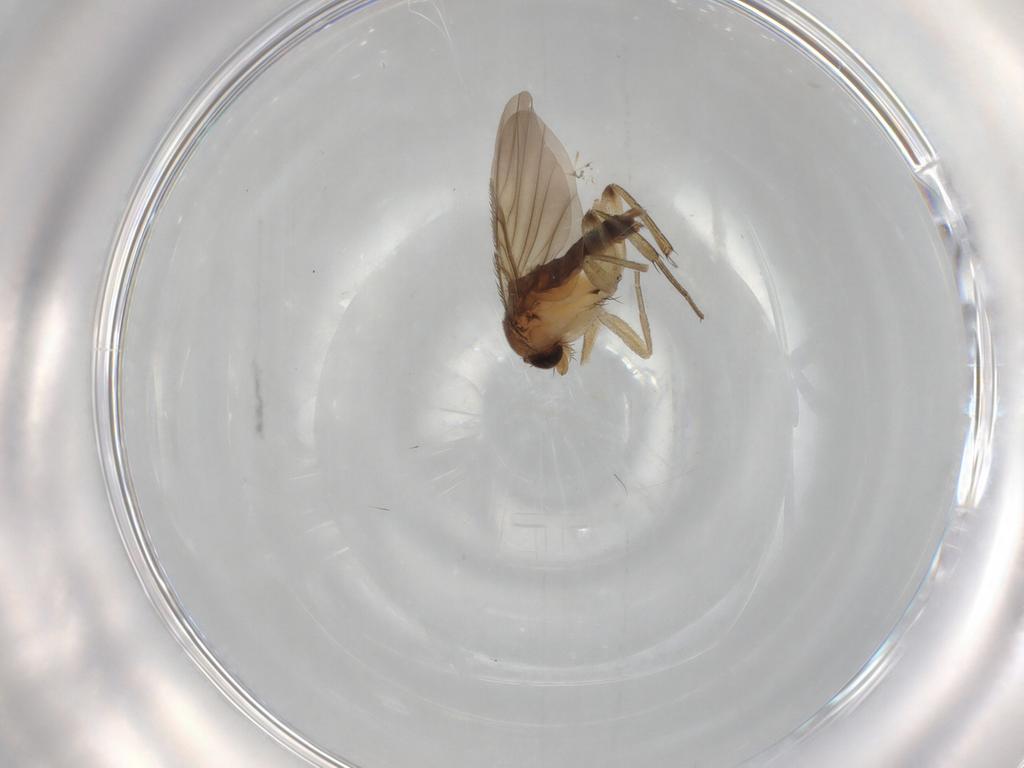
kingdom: Animalia
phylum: Arthropoda
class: Insecta
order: Diptera
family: Phoridae
